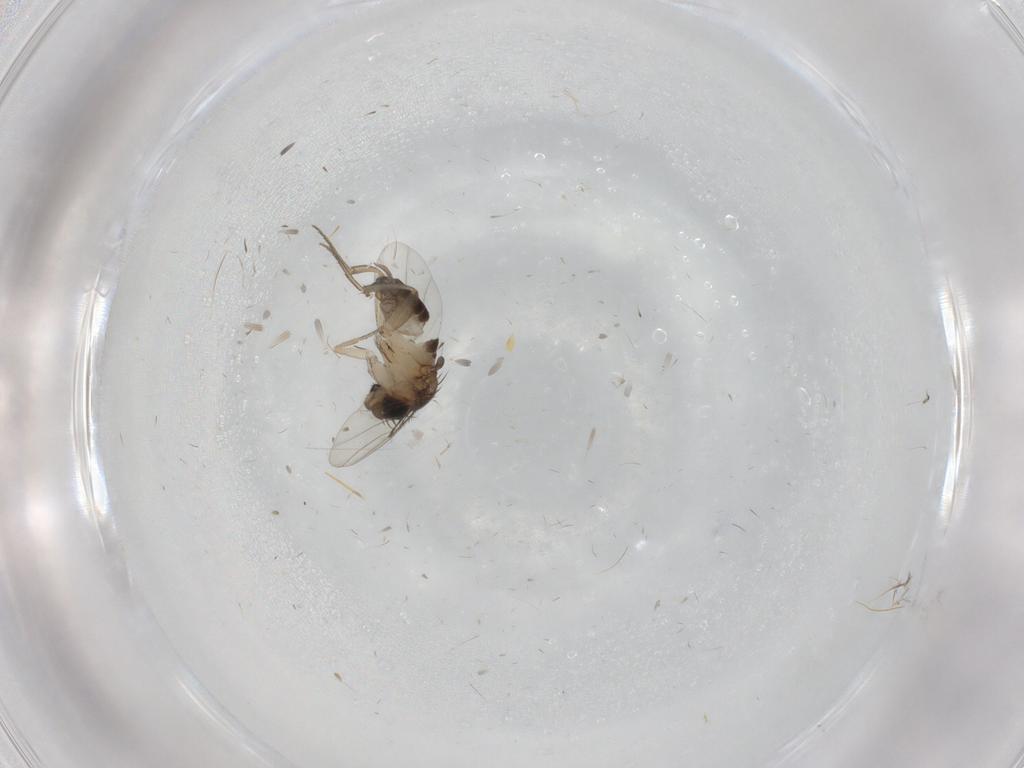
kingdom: Animalia
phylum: Arthropoda
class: Insecta
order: Diptera
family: Phoridae
